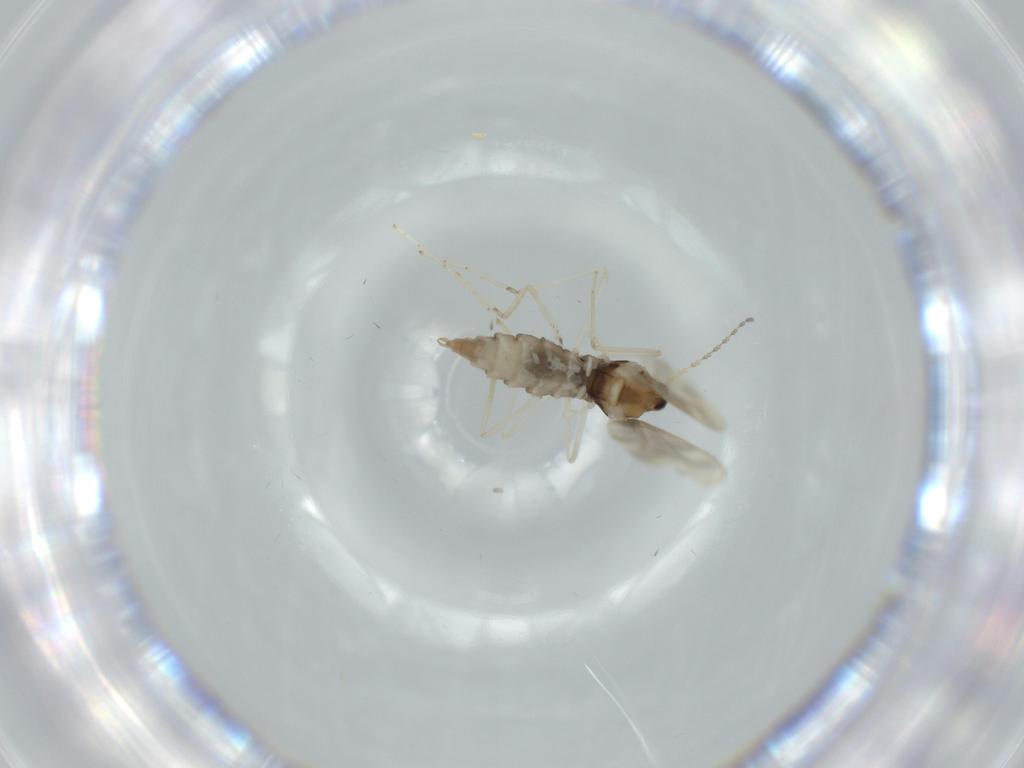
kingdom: Animalia
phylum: Arthropoda
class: Insecta
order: Diptera
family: Cecidomyiidae
